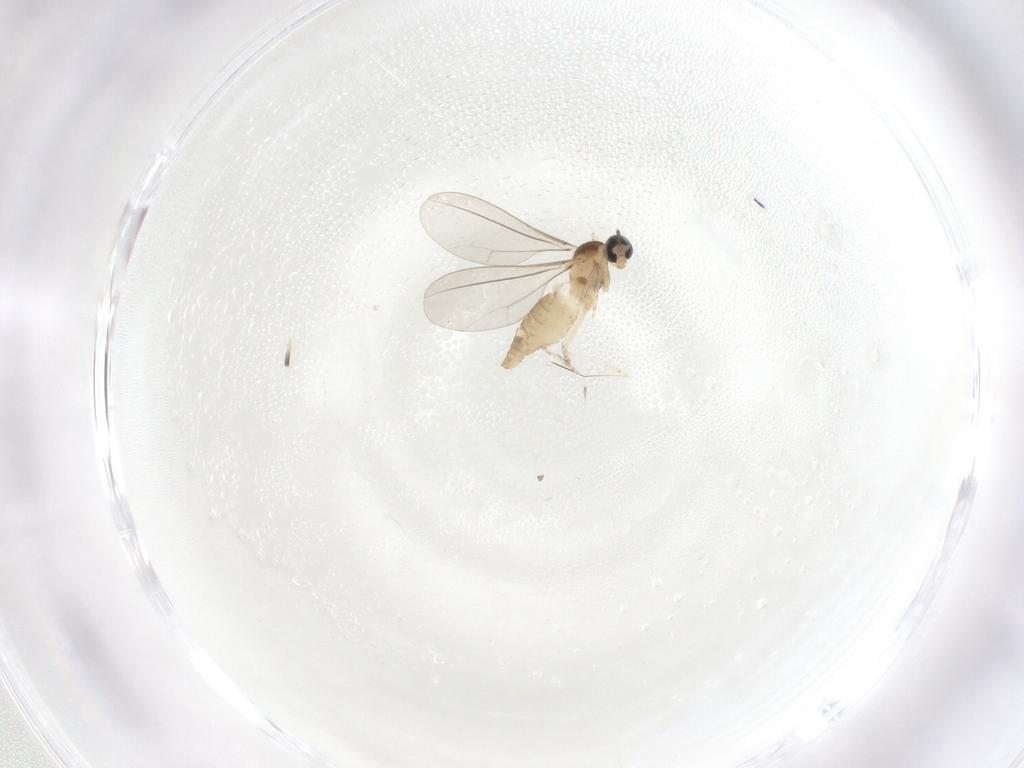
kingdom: Animalia
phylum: Arthropoda
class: Insecta
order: Diptera
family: Cecidomyiidae
